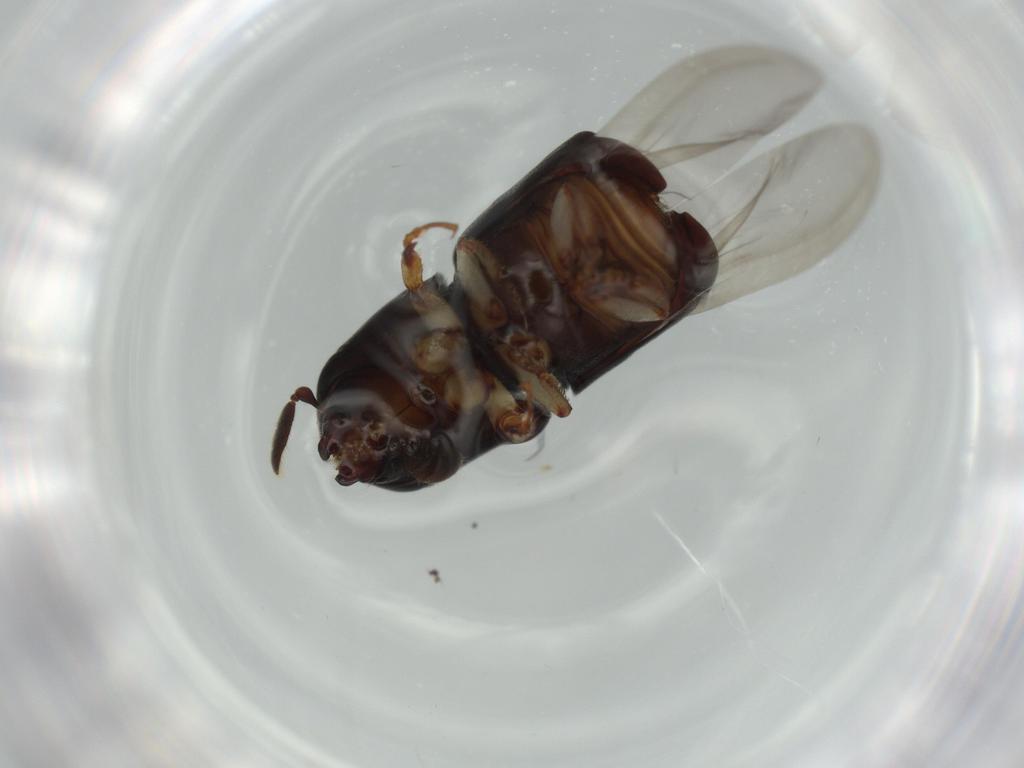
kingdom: Animalia
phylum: Arthropoda
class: Insecta
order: Coleoptera
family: Curculionidae
